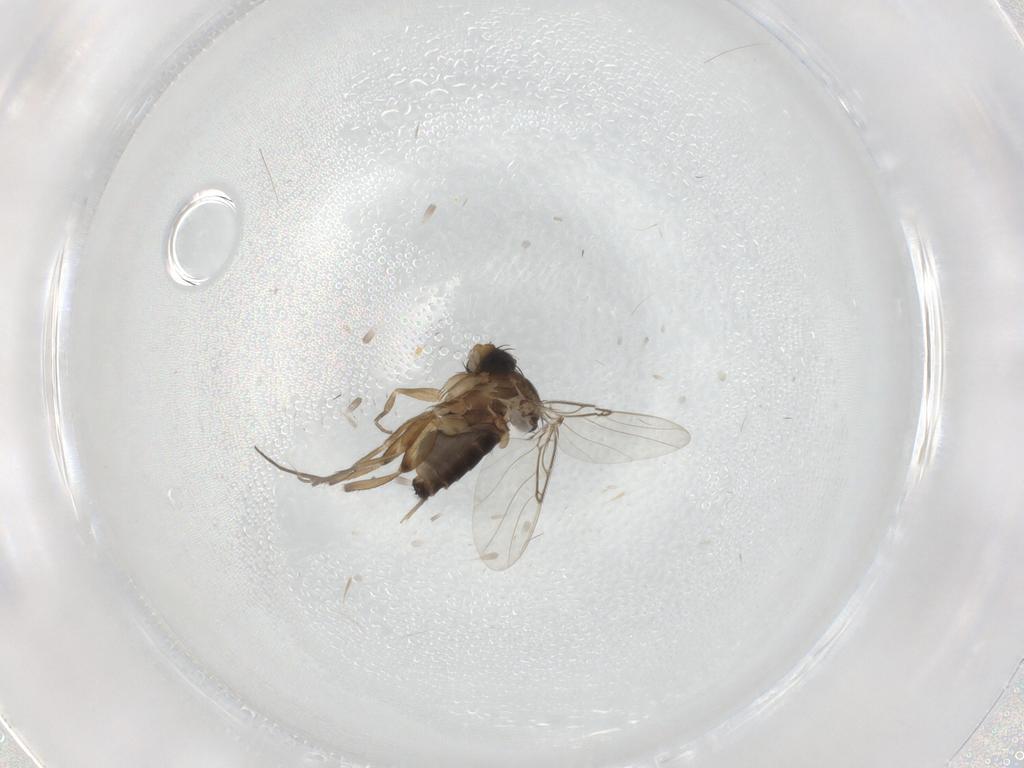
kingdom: Animalia
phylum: Arthropoda
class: Insecta
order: Diptera
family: Phoridae
